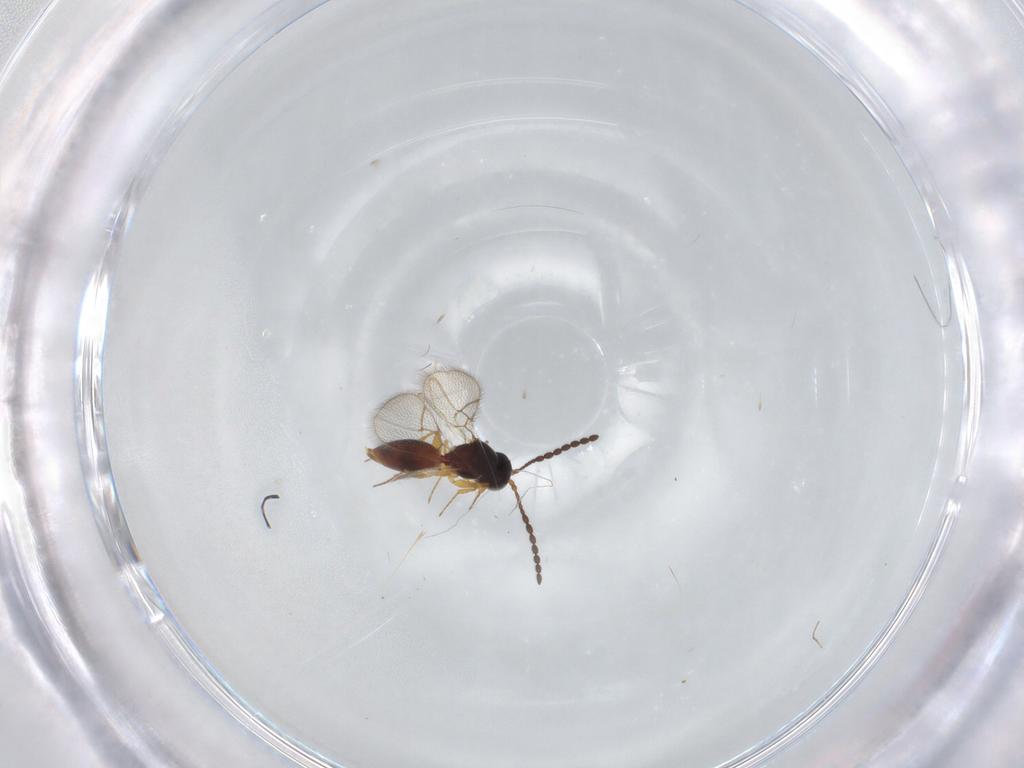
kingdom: Animalia
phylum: Arthropoda
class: Insecta
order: Hymenoptera
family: Figitidae
